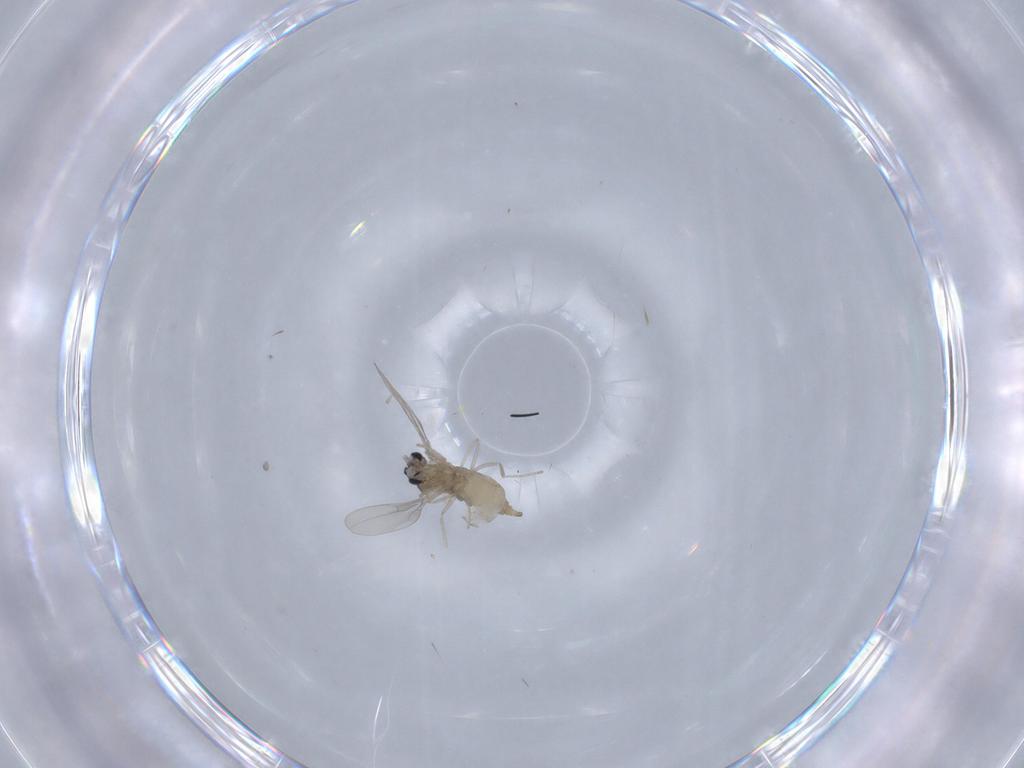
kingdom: Animalia
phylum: Arthropoda
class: Insecta
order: Diptera
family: Cecidomyiidae
